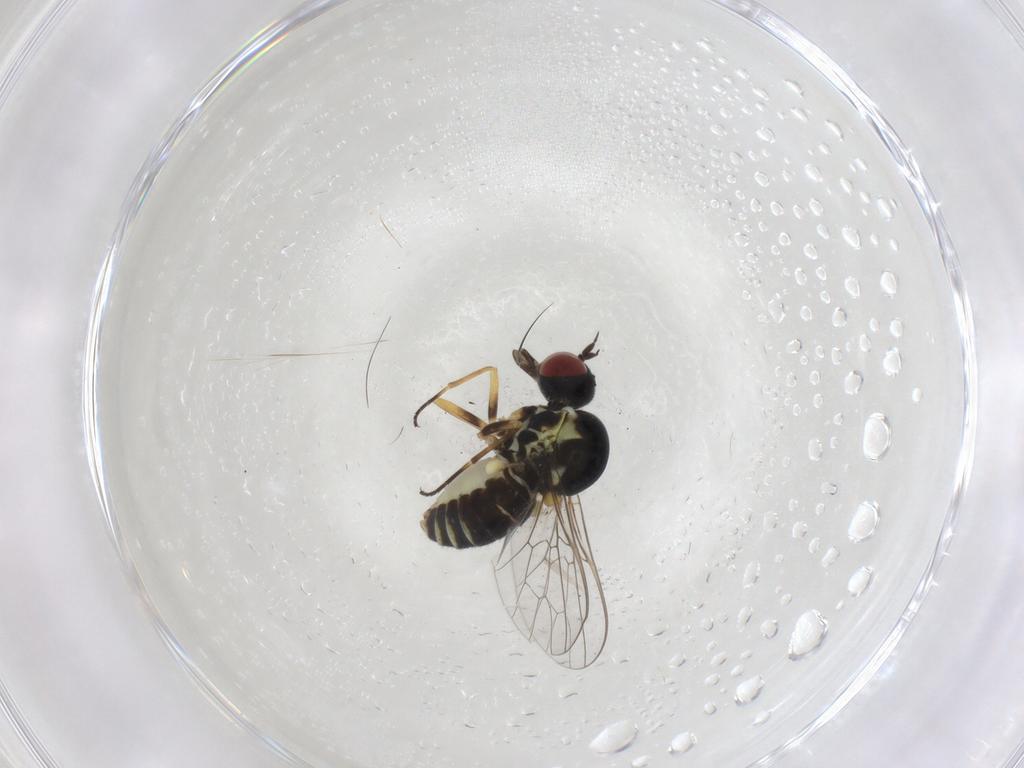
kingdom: Animalia
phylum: Arthropoda
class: Insecta
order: Diptera
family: Bombyliidae
